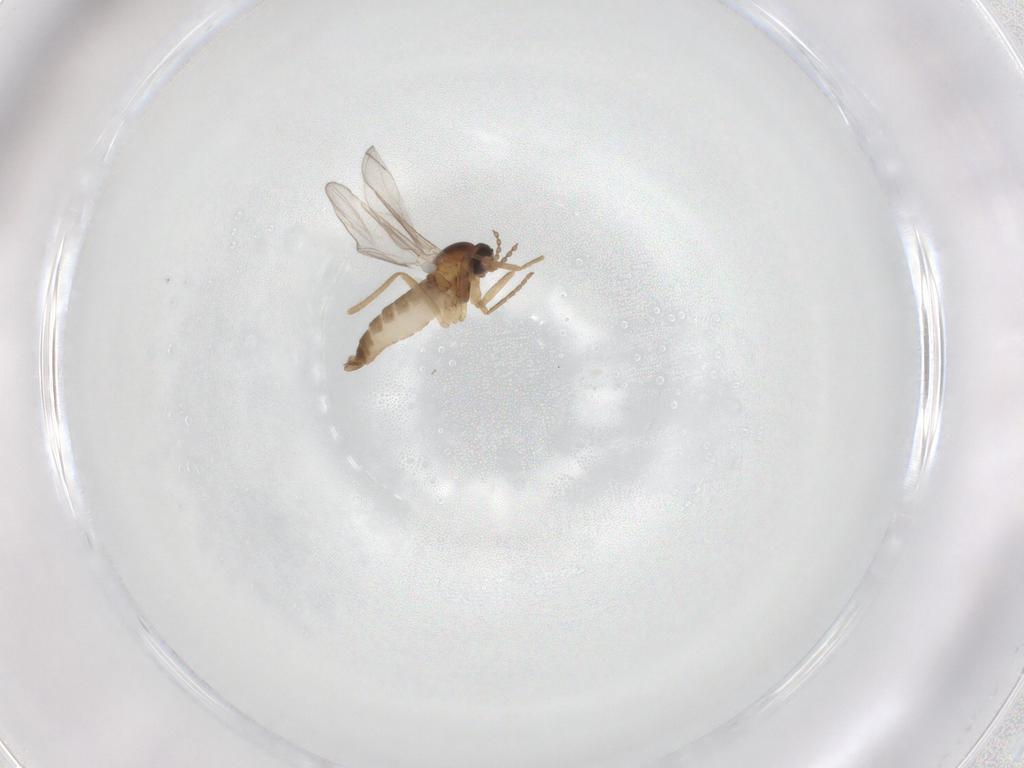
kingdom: Animalia
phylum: Arthropoda
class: Insecta
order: Diptera
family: Cecidomyiidae
